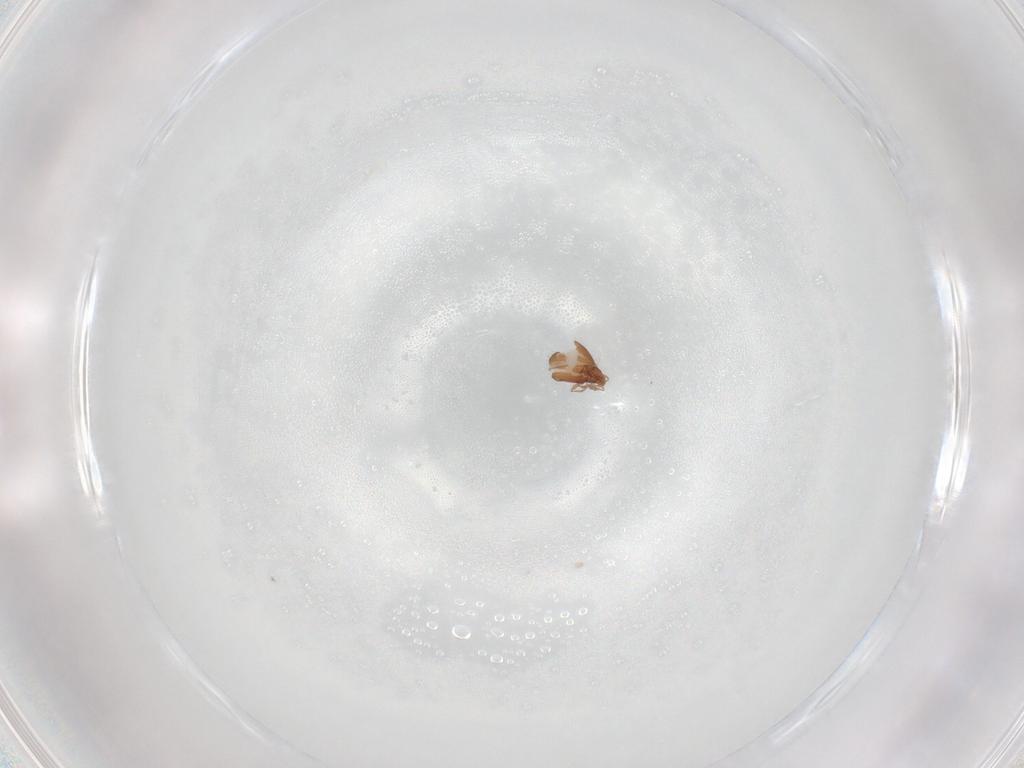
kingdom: Animalia
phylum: Arthropoda
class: Arachnida
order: Sarcoptiformes
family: Oribatulidae
